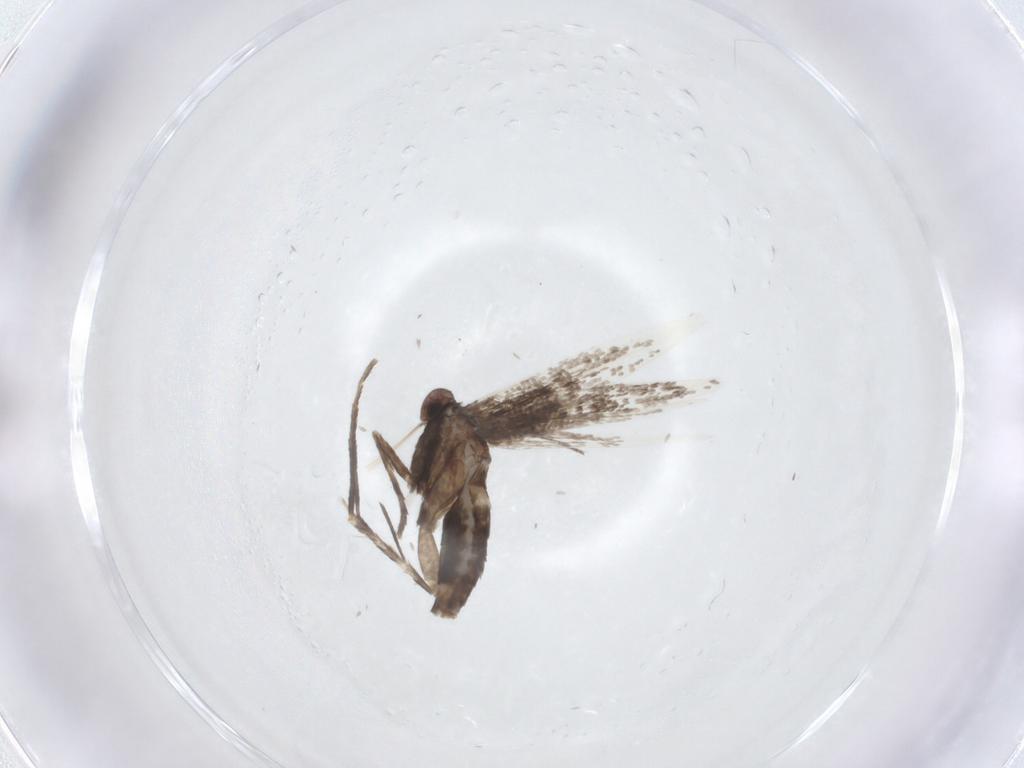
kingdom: Animalia
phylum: Arthropoda
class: Insecta
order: Lepidoptera
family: Gracillariidae
